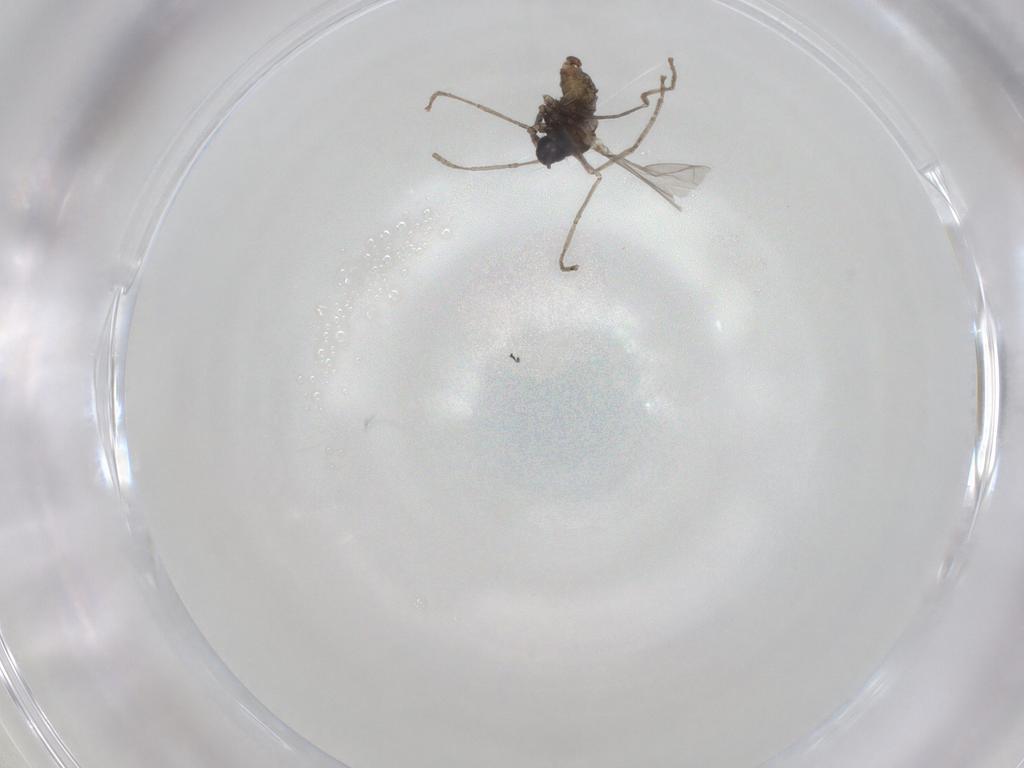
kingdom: Animalia
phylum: Arthropoda
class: Insecta
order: Diptera
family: Cecidomyiidae
